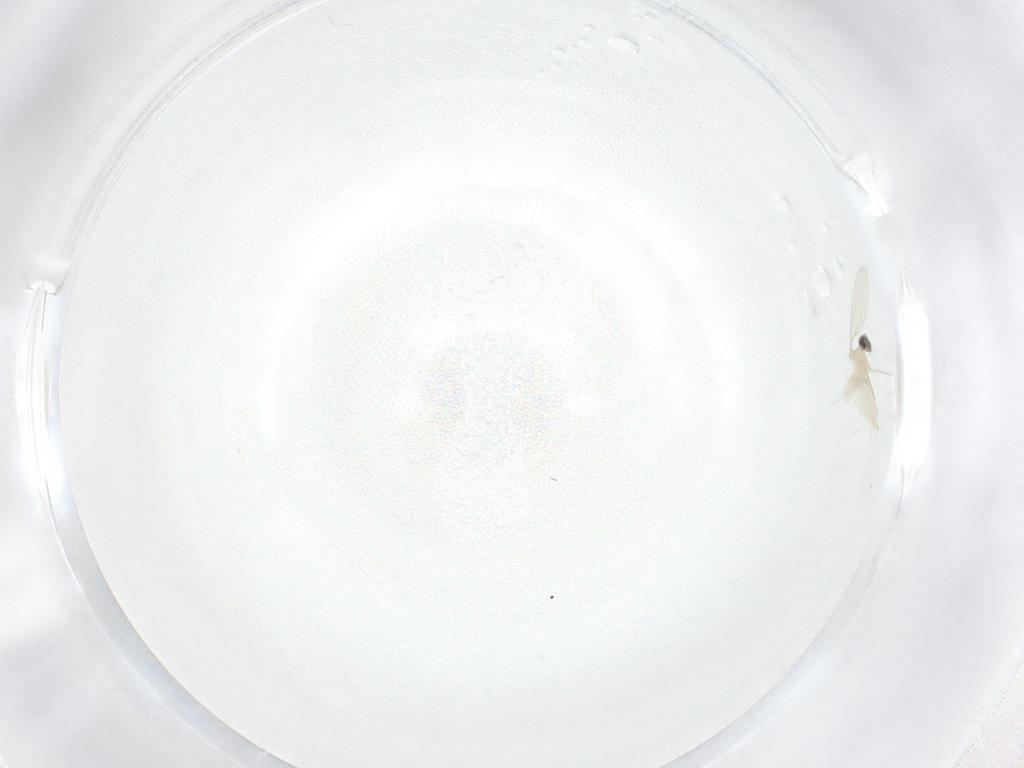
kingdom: Animalia
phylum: Arthropoda
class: Insecta
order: Diptera
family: Cecidomyiidae
